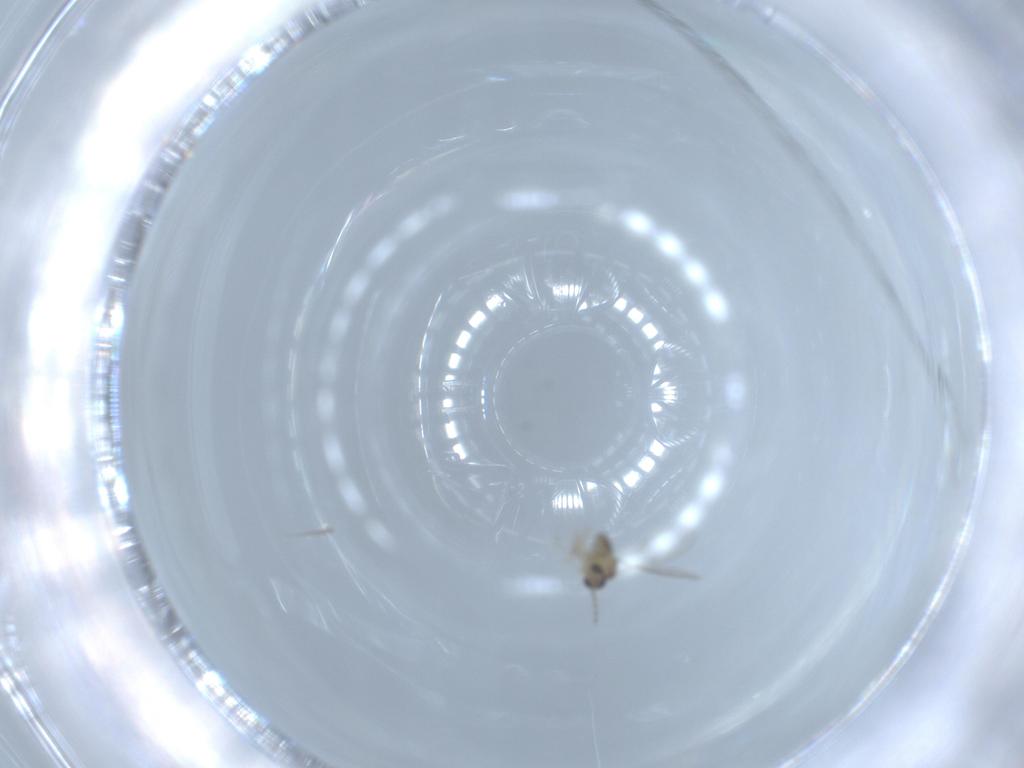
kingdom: Animalia
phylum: Arthropoda
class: Insecta
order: Diptera
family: Chironomidae
